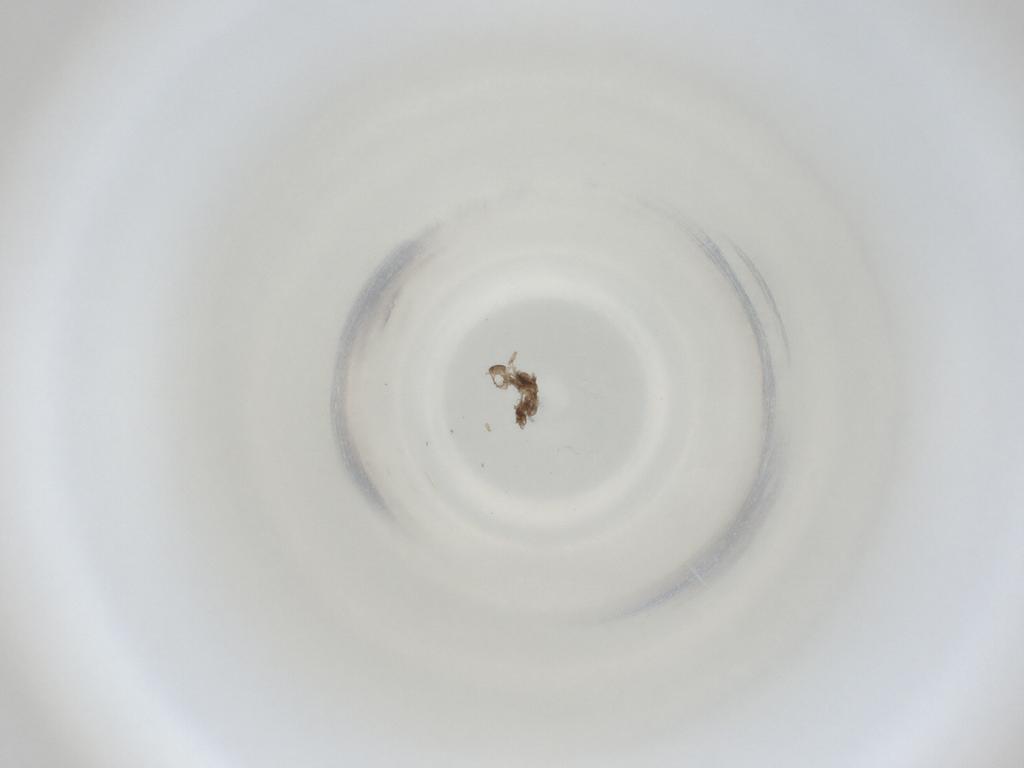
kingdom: Animalia
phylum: Arthropoda
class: Insecta
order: Diptera
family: Cecidomyiidae
